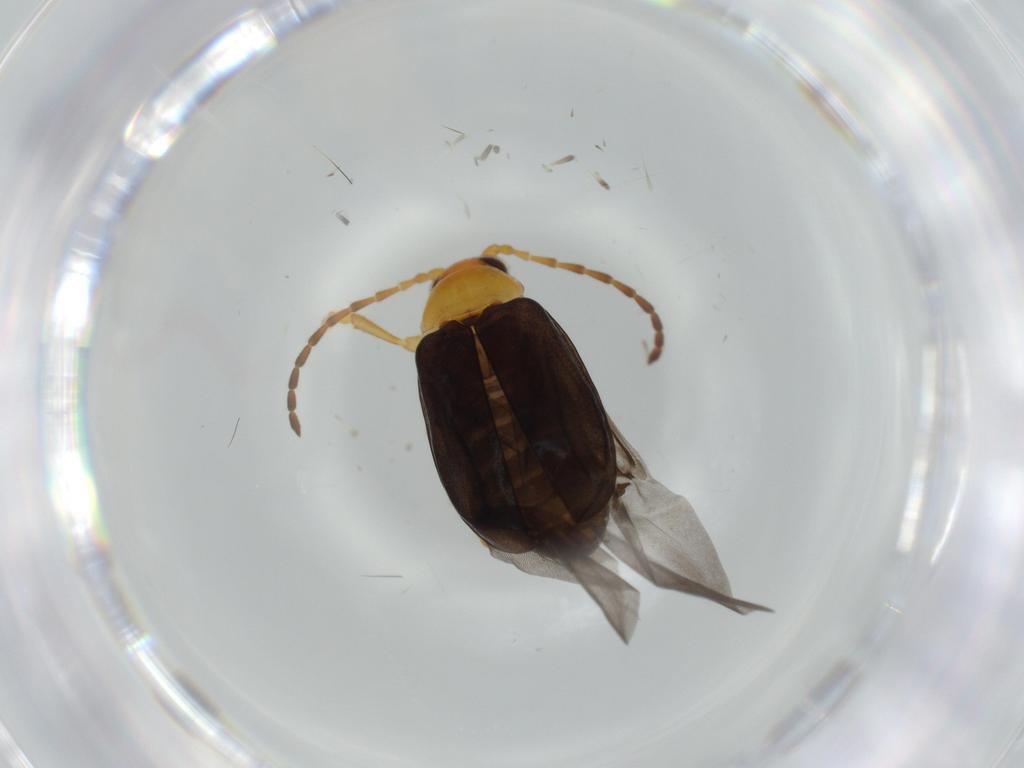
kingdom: Animalia
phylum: Arthropoda
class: Insecta
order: Coleoptera
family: Chrysomelidae
